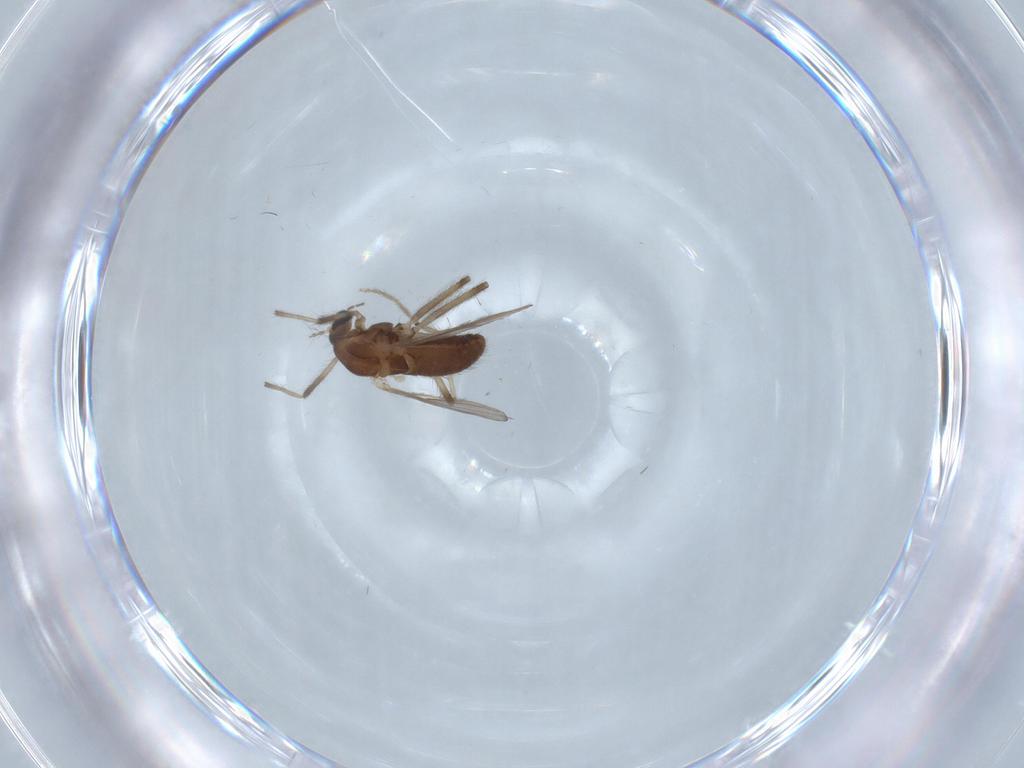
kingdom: Animalia
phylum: Arthropoda
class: Insecta
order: Diptera
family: Chironomidae
